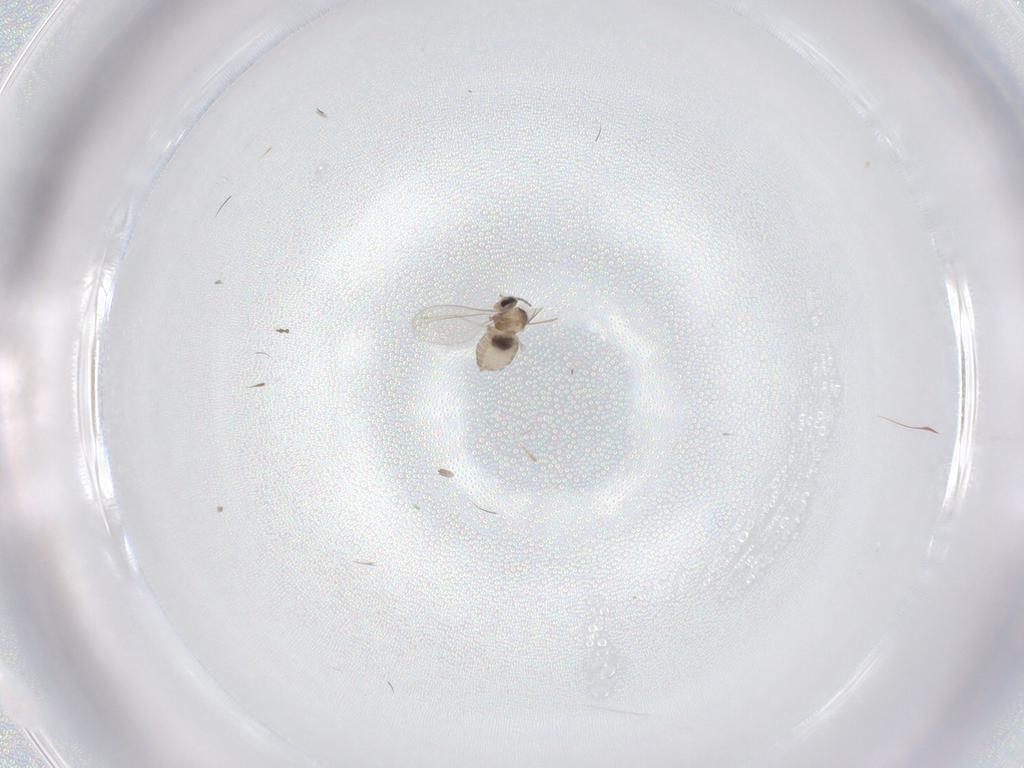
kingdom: Animalia
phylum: Arthropoda
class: Insecta
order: Diptera
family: Cecidomyiidae
